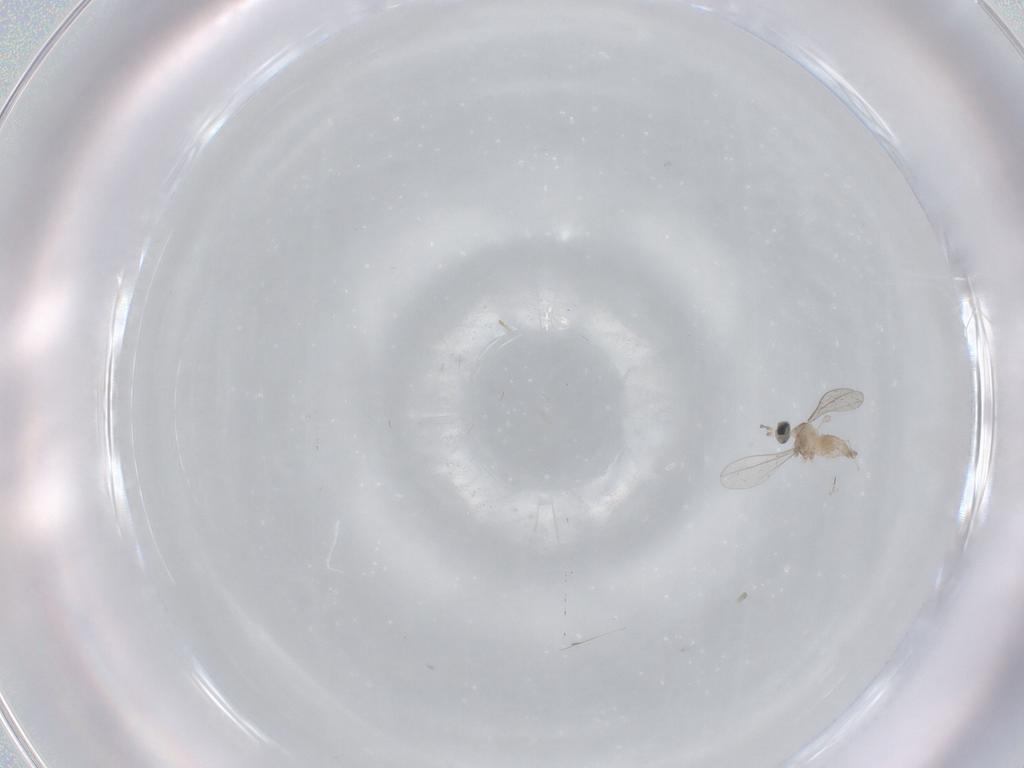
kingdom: Animalia
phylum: Arthropoda
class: Insecta
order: Diptera
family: Cecidomyiidae
